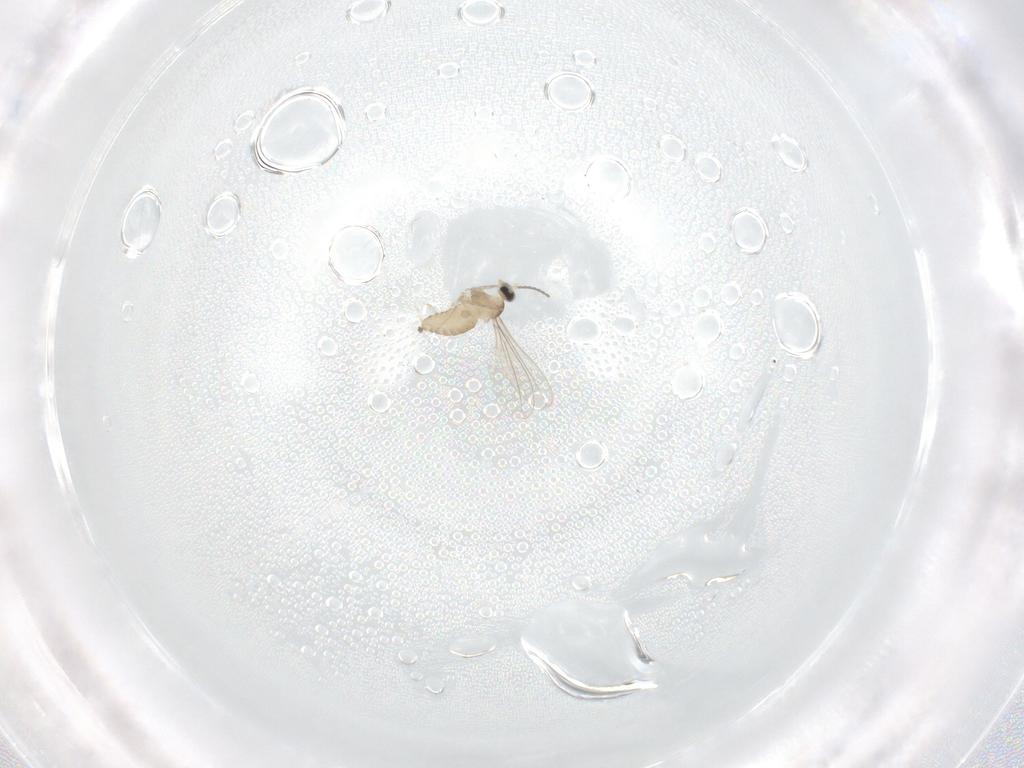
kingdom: Animalia
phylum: Arthropoda
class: Insecta
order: Diptera
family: Cecidomyiidae
